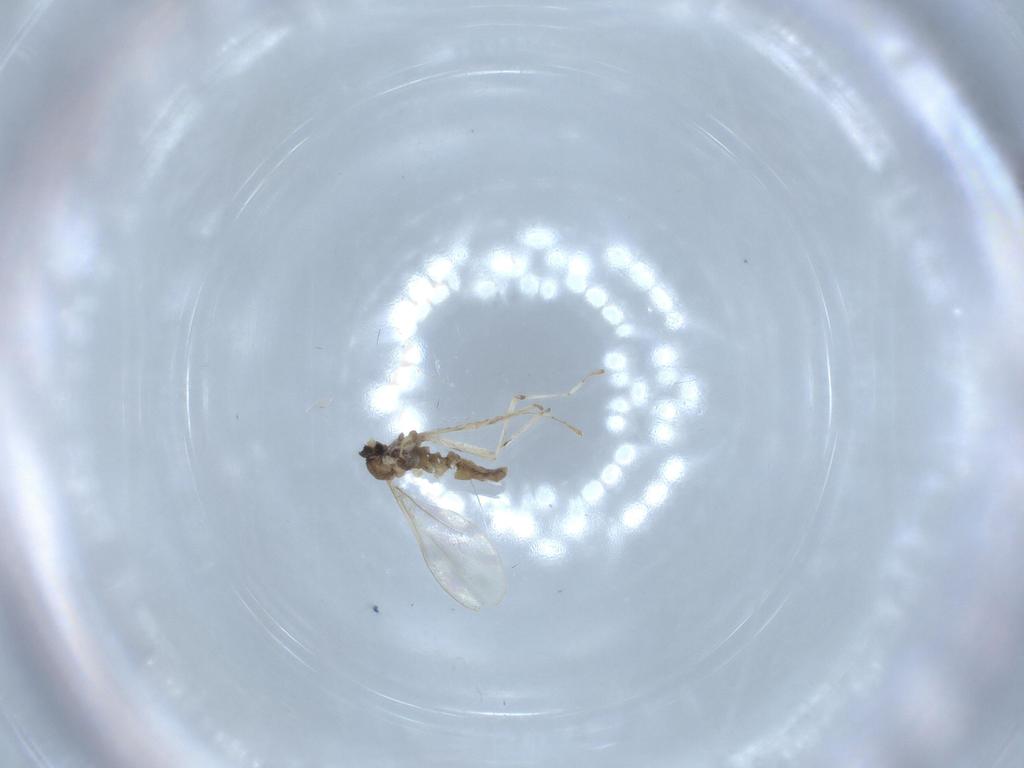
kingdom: Animalia
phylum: Arthropoda
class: Insecta
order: Diptera
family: Cecidomyiidae
